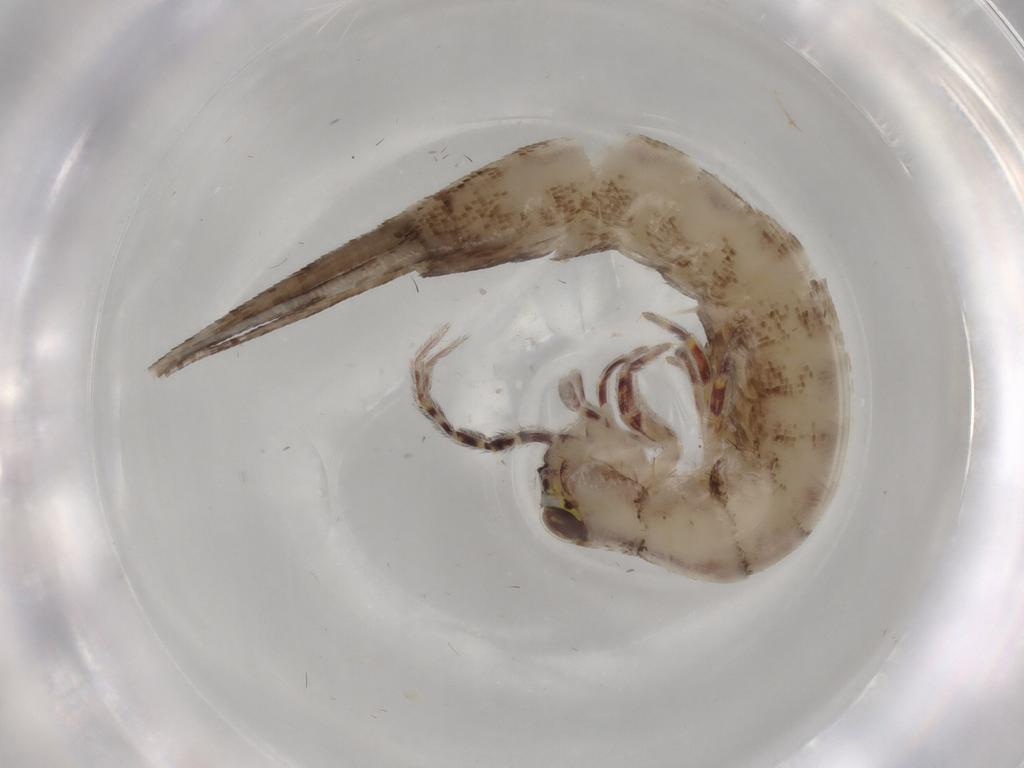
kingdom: Animalia
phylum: Arthropoda
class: Insecta
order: Archaeognatha
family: Machilidae
